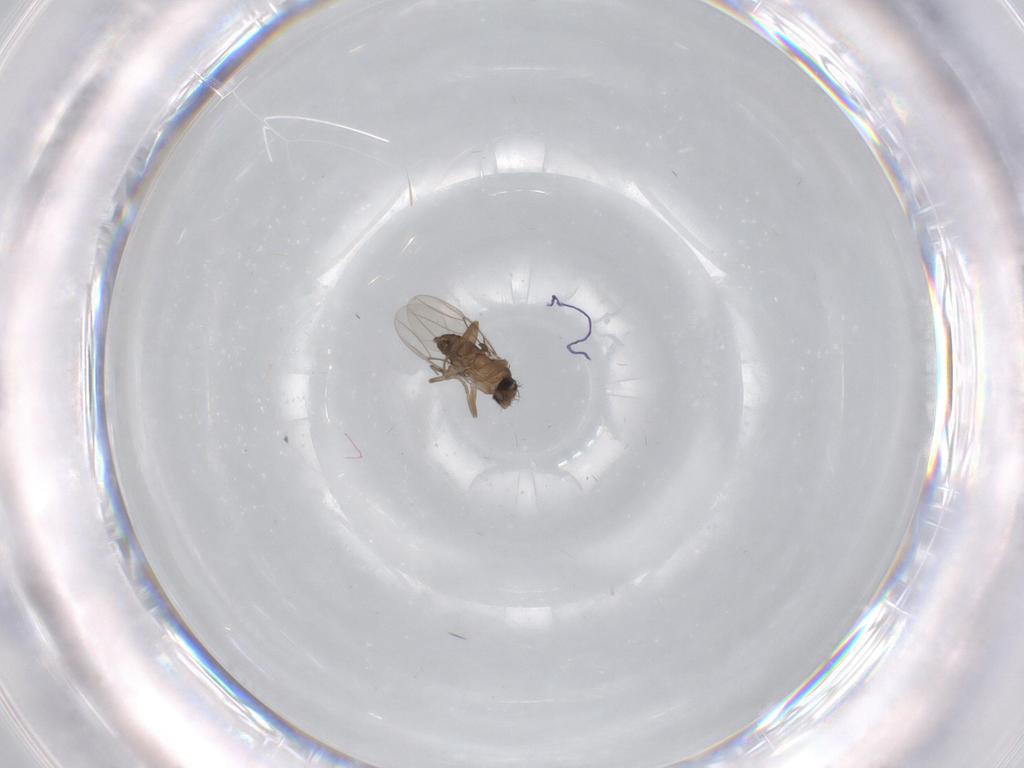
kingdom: Animalia
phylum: Arthropoda
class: Insecta
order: Diptera
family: Phoridae
